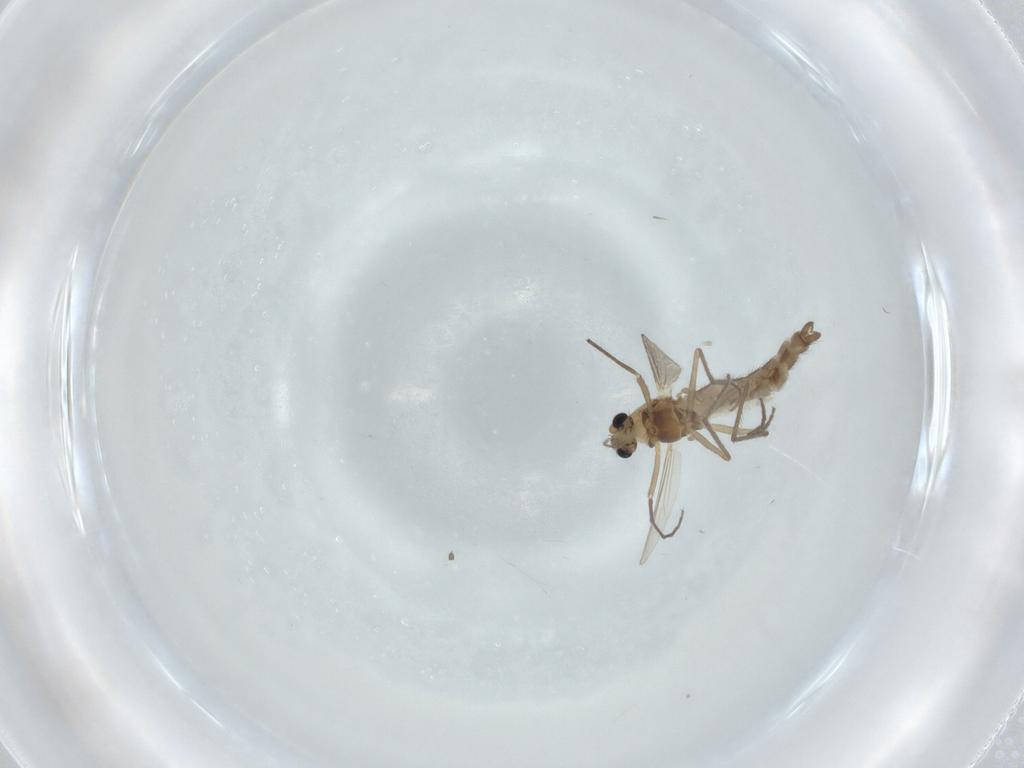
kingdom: Animalia
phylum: Arthropoda
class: Insecta
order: Diptera
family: Chironomidae
